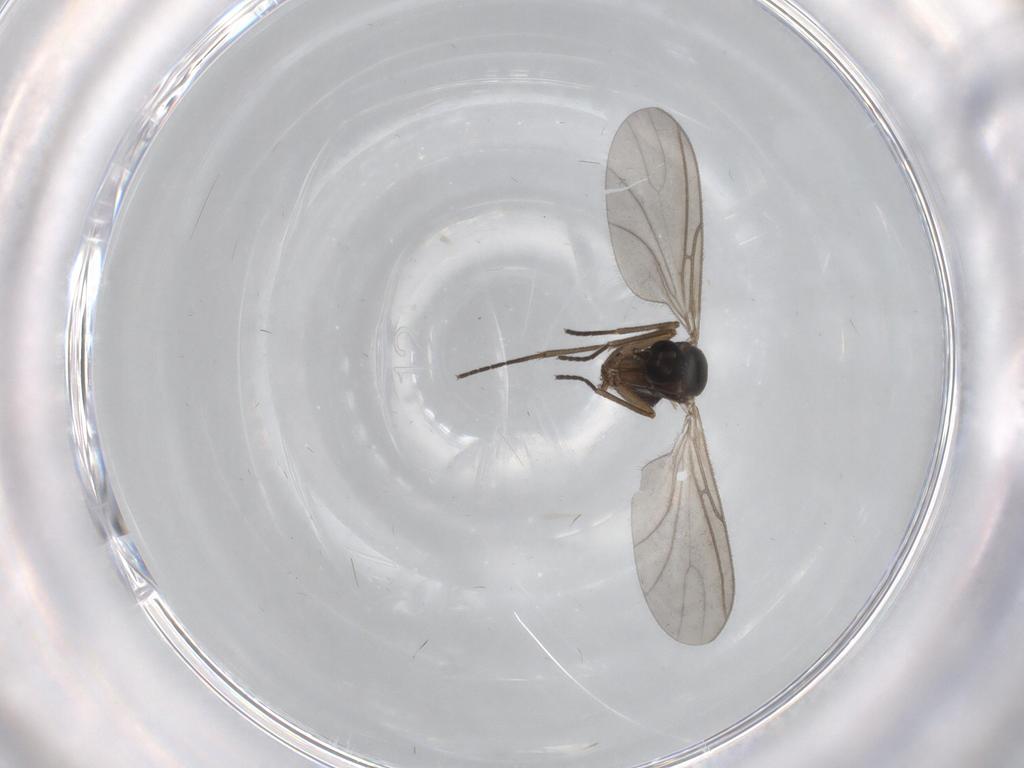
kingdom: Animalia
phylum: Arthropoda
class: Insecta
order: Diptera
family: Sciaridae
